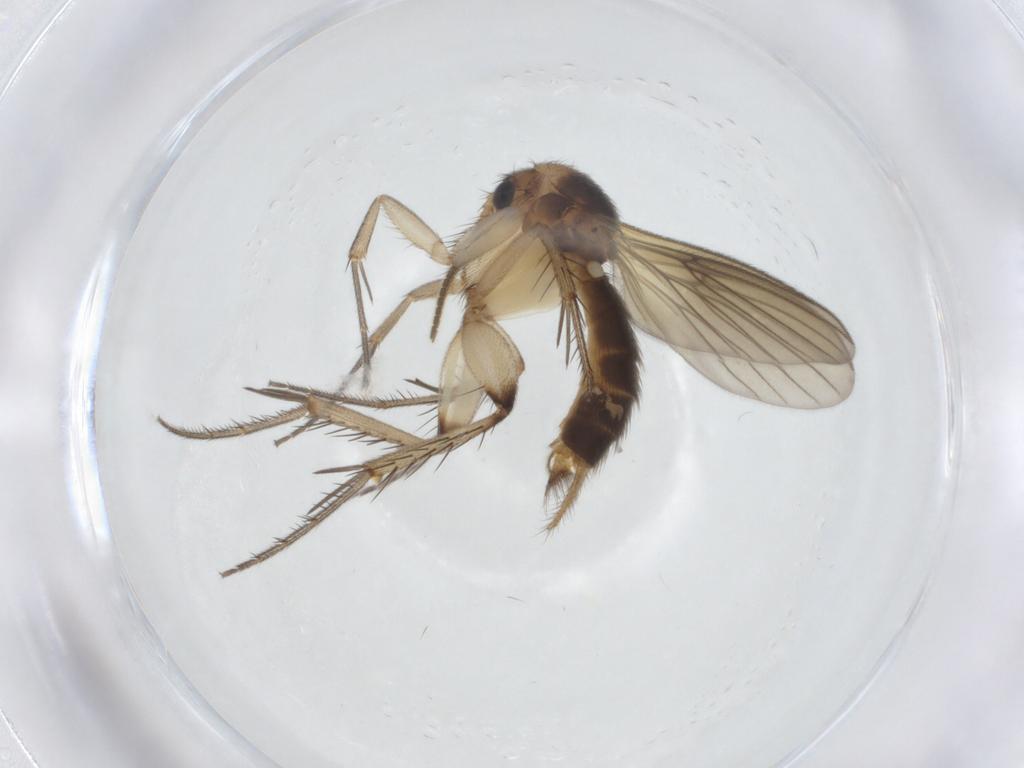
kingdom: Animalia
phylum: Arthropoda
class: Insecta
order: Diptera
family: Mycetophilidae
